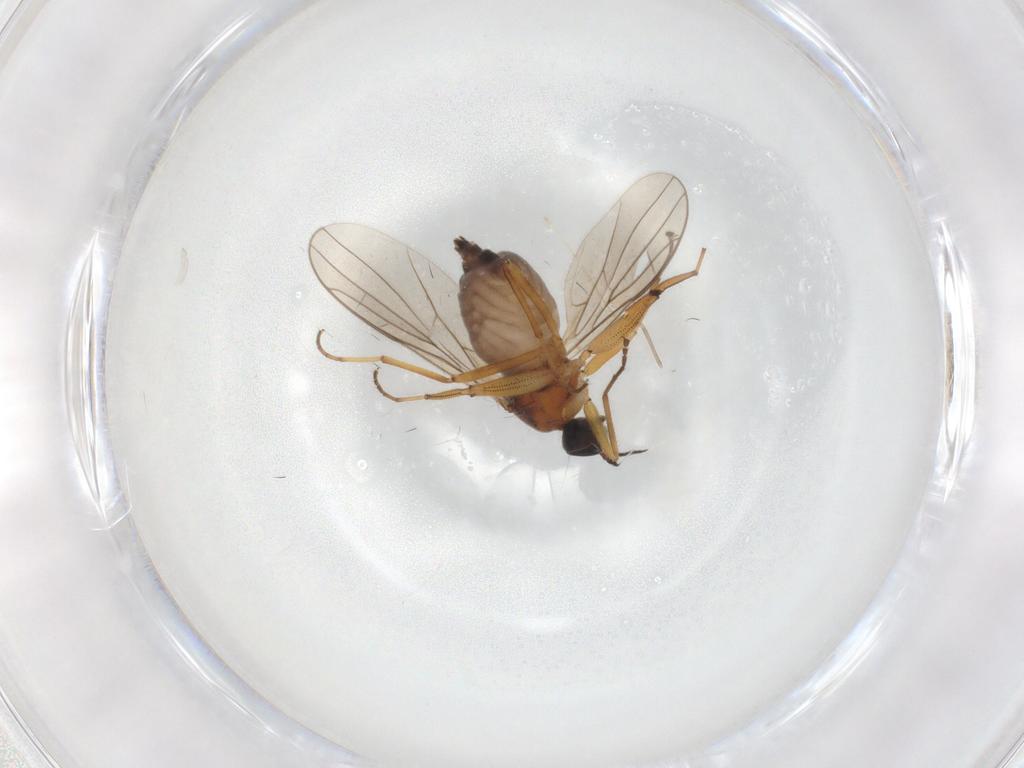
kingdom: Animalia
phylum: Arthropoda
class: Insecta
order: Diptera
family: Hybotidae
